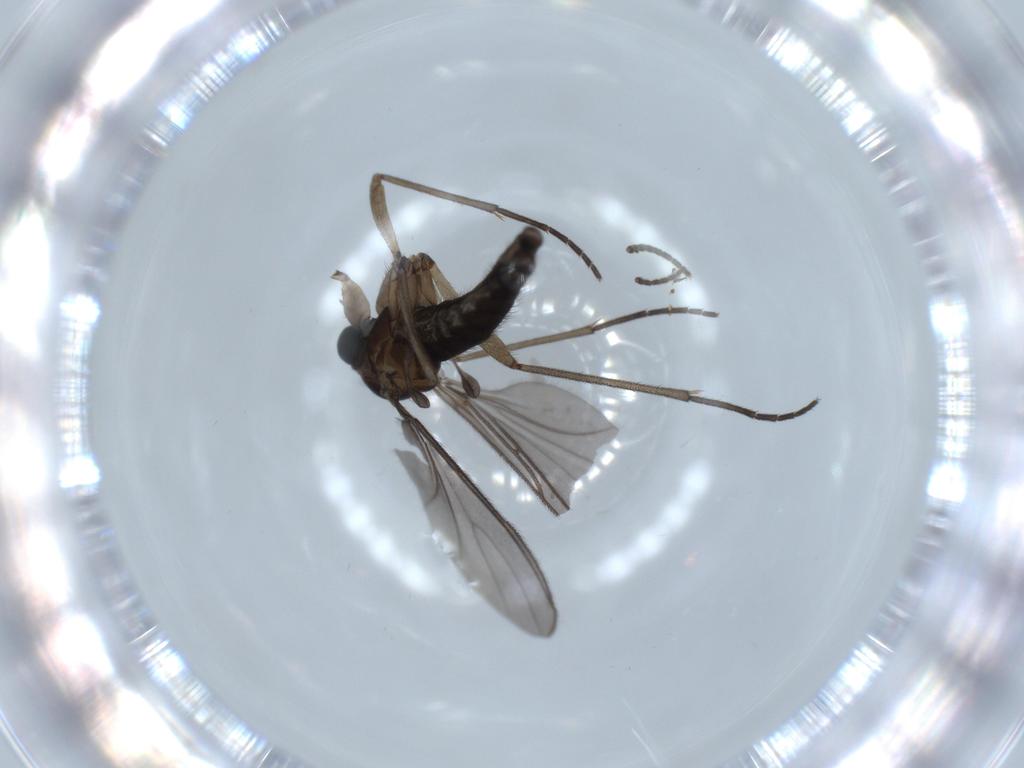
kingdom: Animalia
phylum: Arthropoda
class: Insecta
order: Diptera
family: Sciaridae
